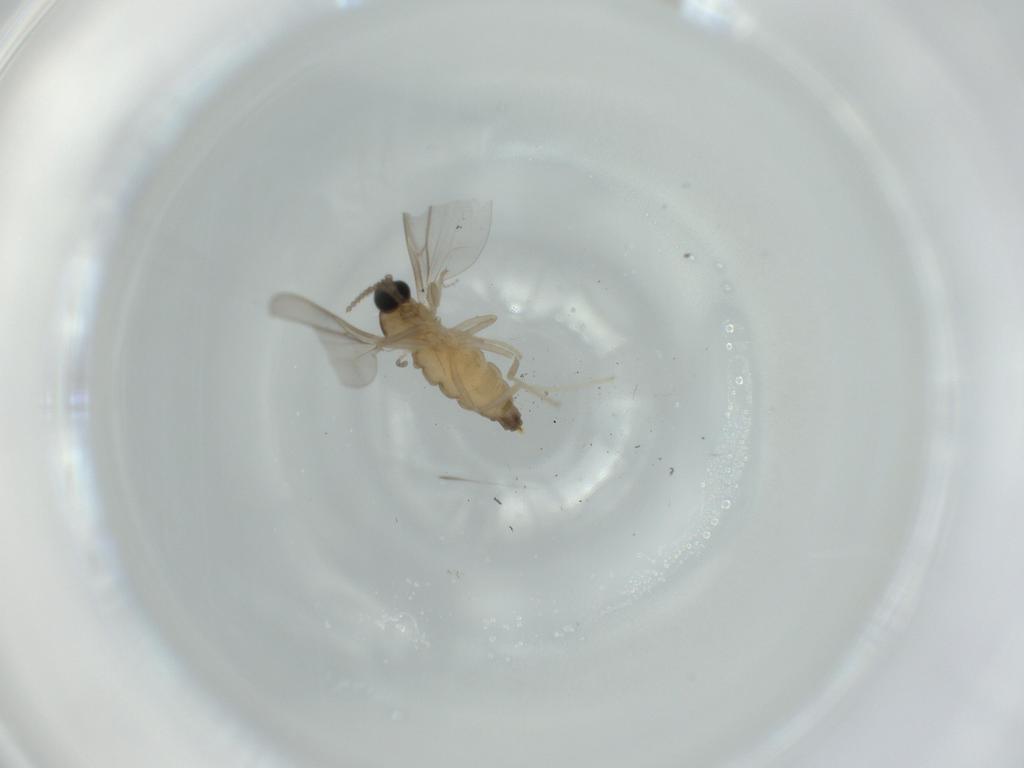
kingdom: Animalia
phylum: Arthropoda
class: Insecta
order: Diptera
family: Cecidomyiidae
